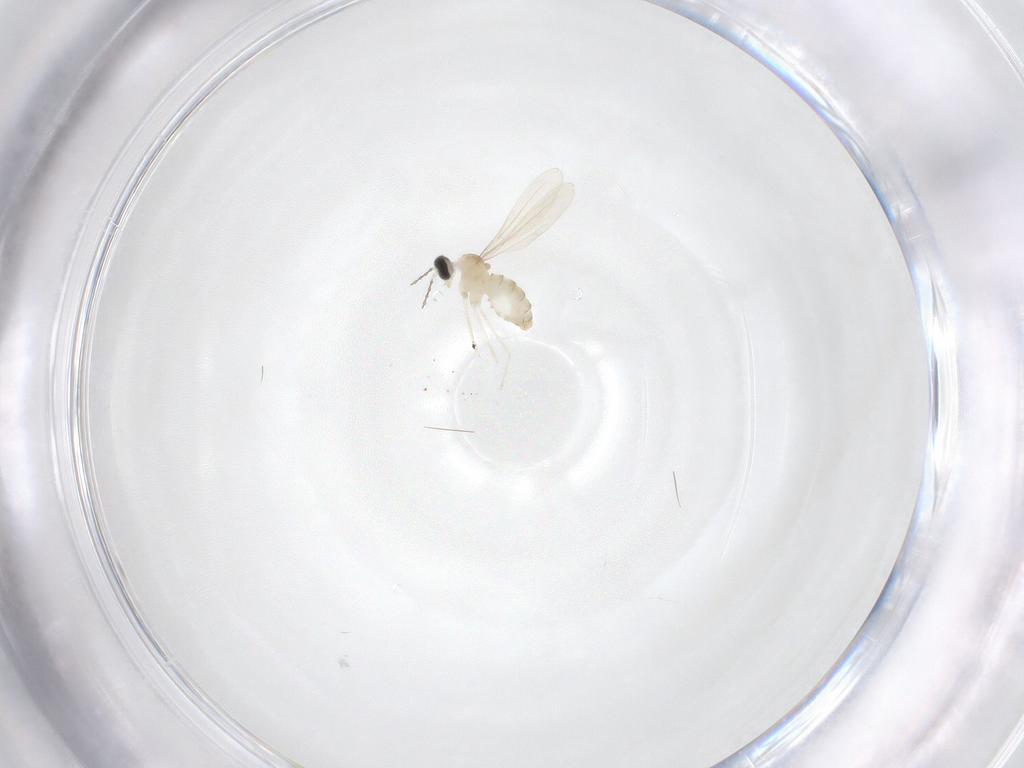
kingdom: Animalia
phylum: Arthropoda
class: Insecta
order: Diptera
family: Cecidomyiidae
